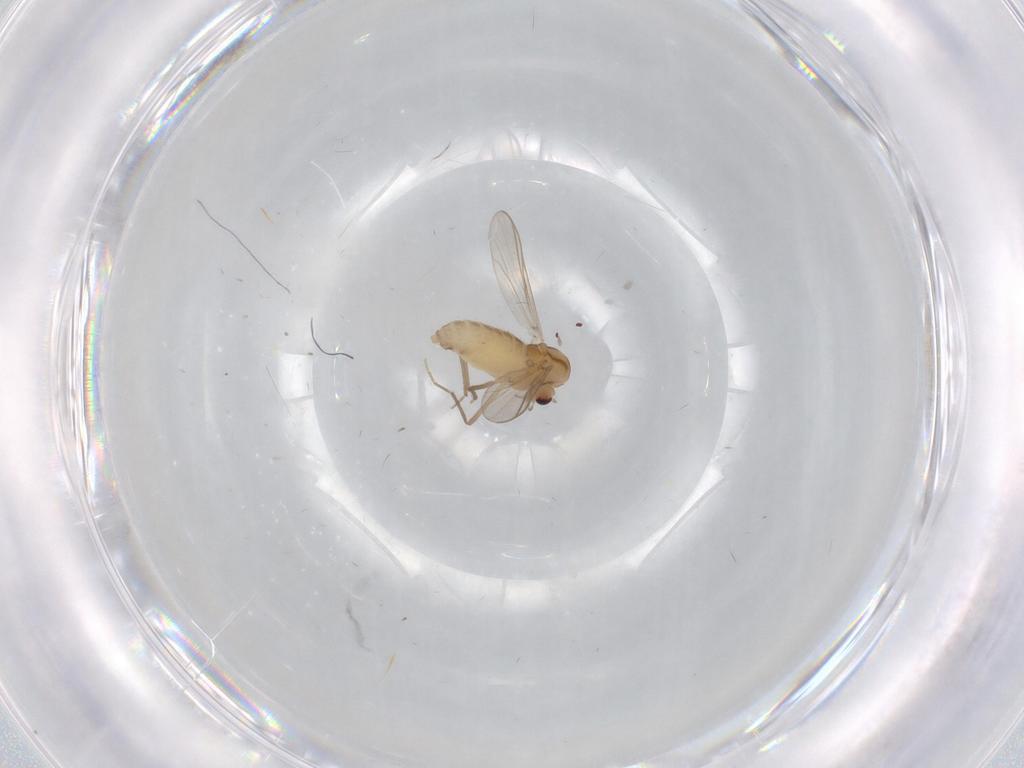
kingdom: Animalia
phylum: Arthropoda
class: Insecta
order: Diptera
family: Chironomidae
